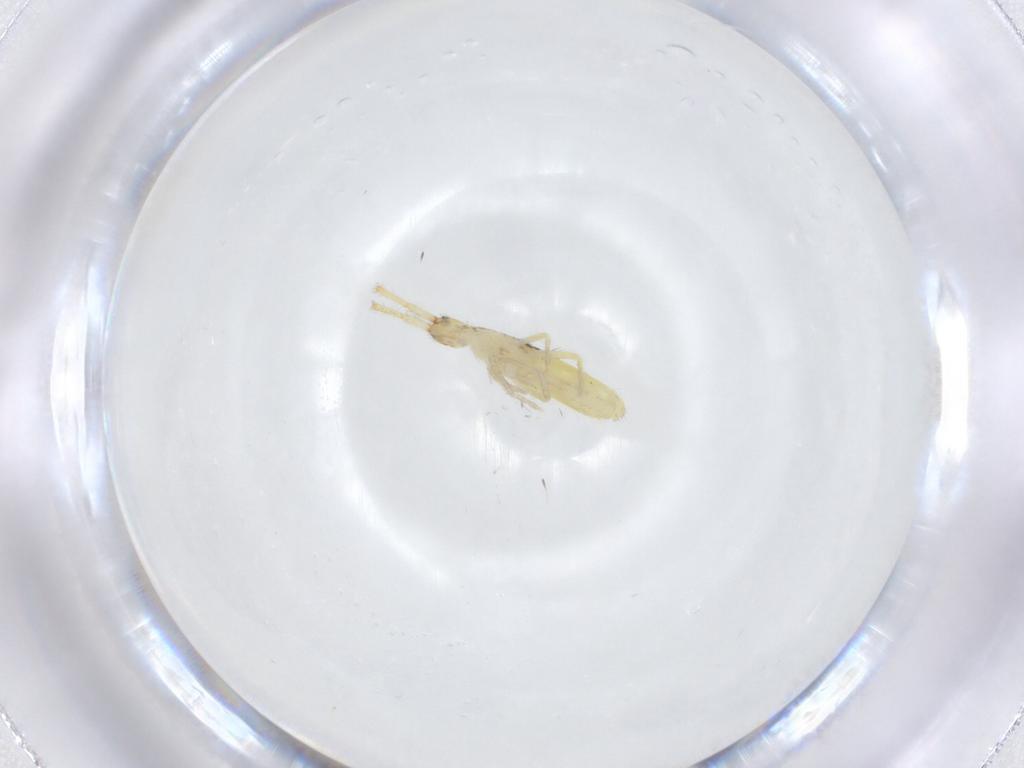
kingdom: Animalia
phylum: Arthropoda
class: Collembola
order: Entomobryomorpha
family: Entomobryidae
